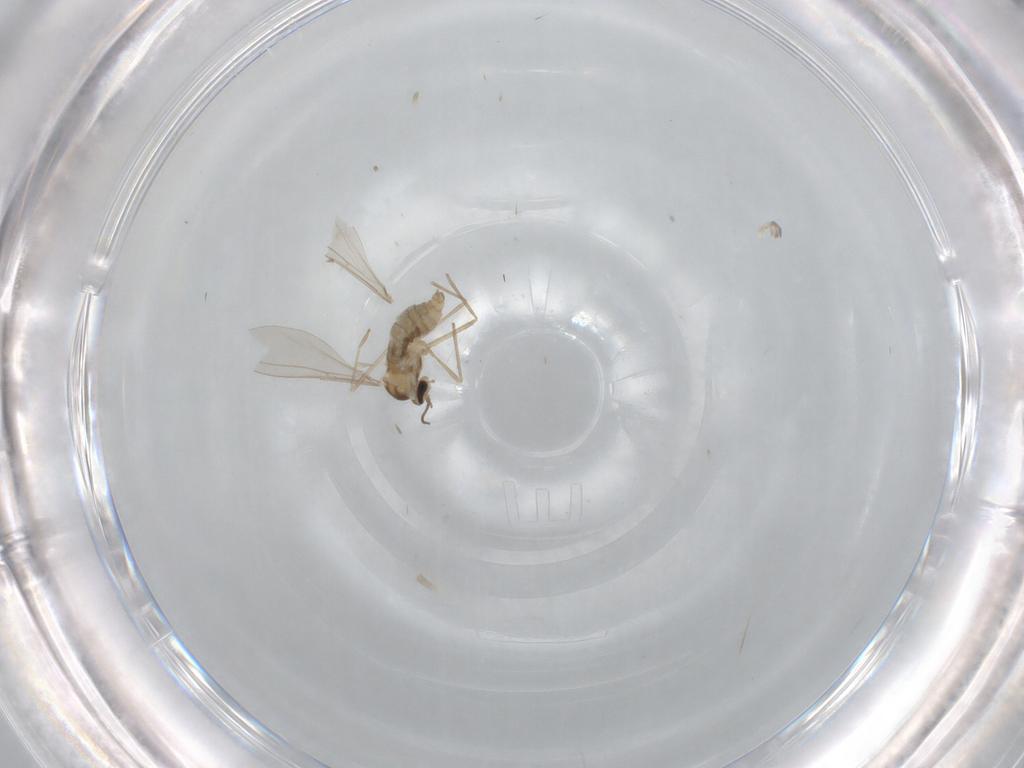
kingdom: Animalia
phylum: Arthropoda
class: Insecta
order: Diptera
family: Cecidomyiidae
